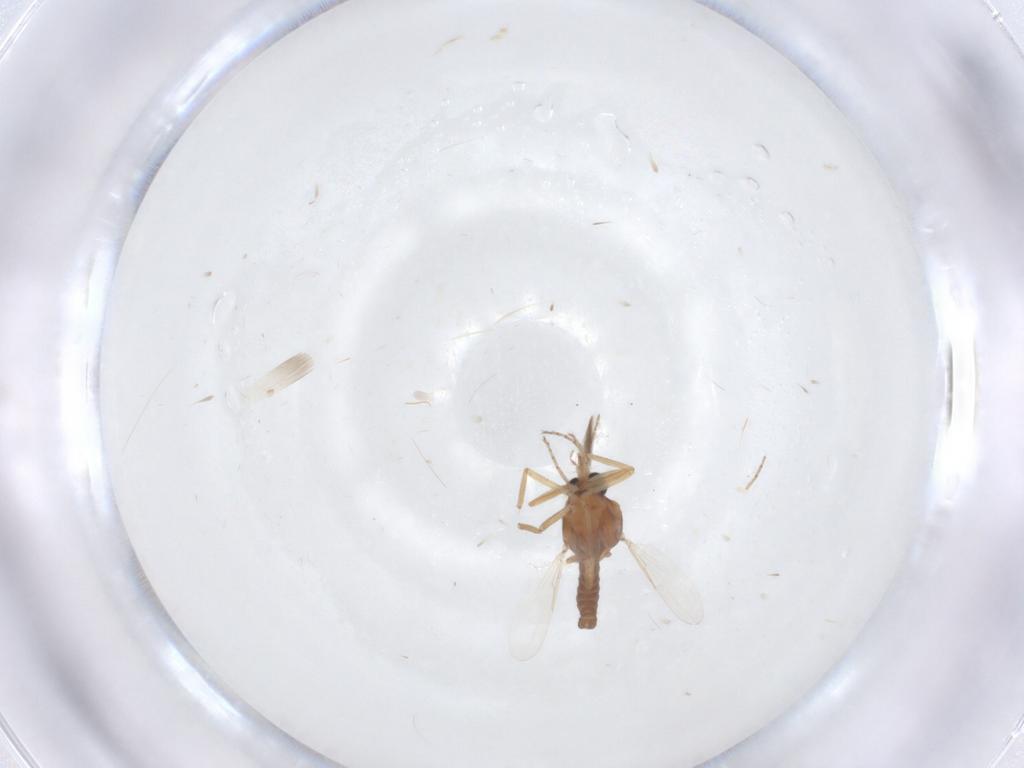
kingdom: Animalia
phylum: Arthropoda
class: Insecta
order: Diptera
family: Ceratopogonidae
